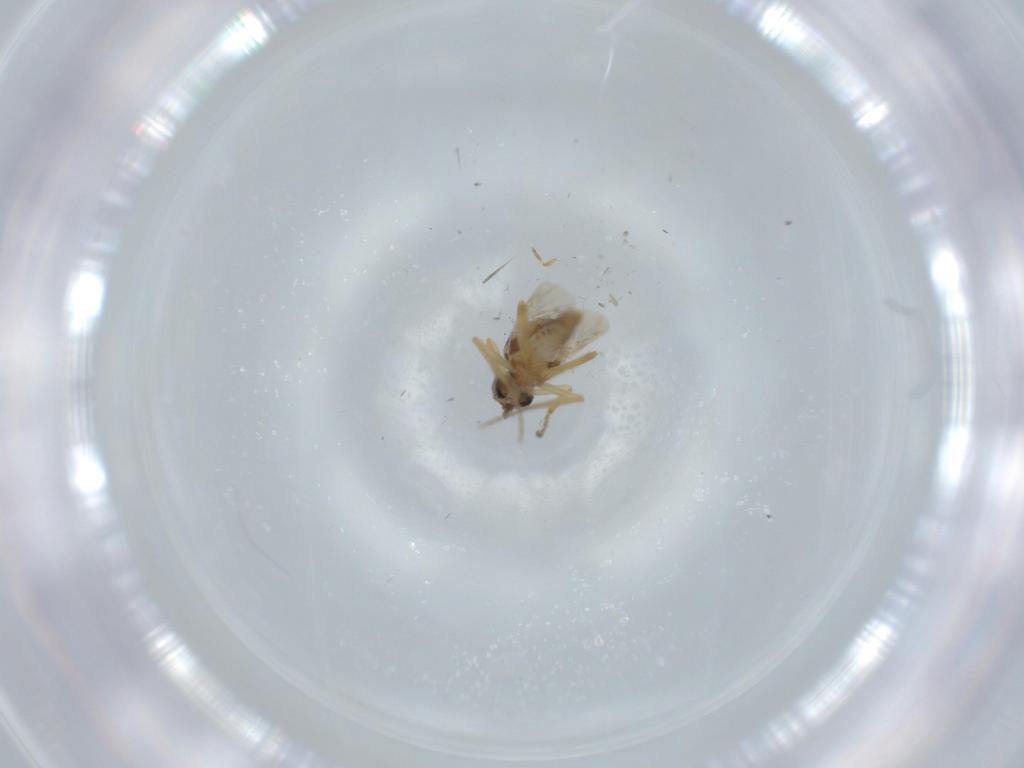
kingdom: Animalia
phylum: Arthropoda
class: Insecta
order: Diptera
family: Ceratopogonidae
